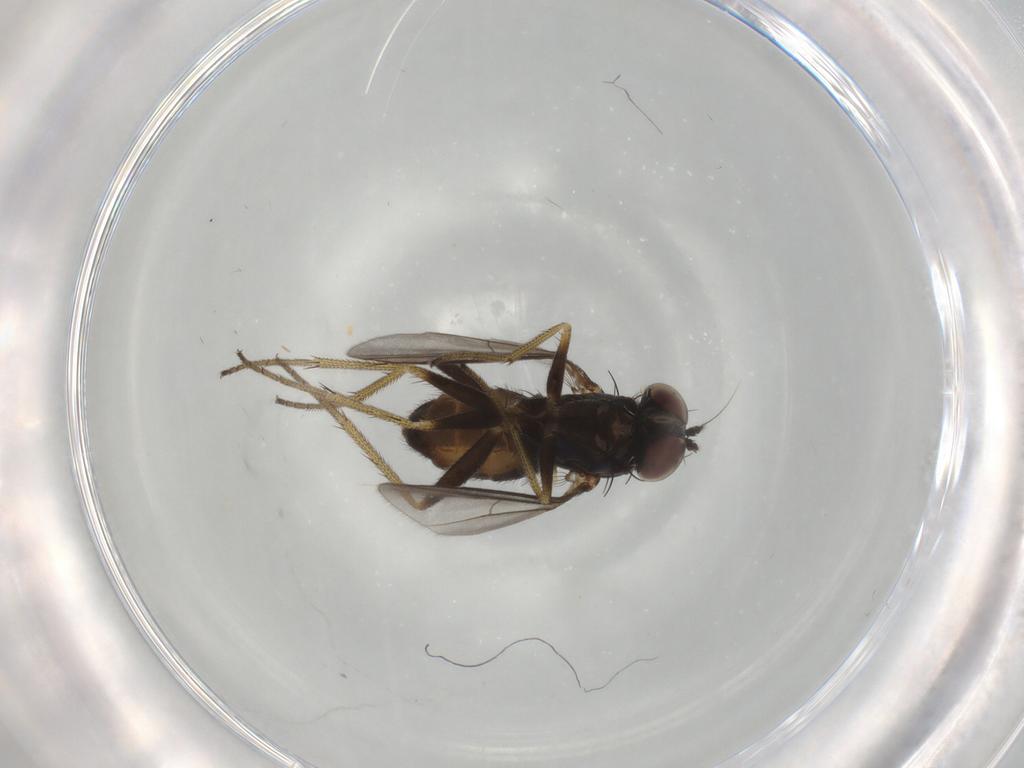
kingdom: Animalia
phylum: Arthropoda
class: Insecta
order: Diptera
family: Dolichopodidae
